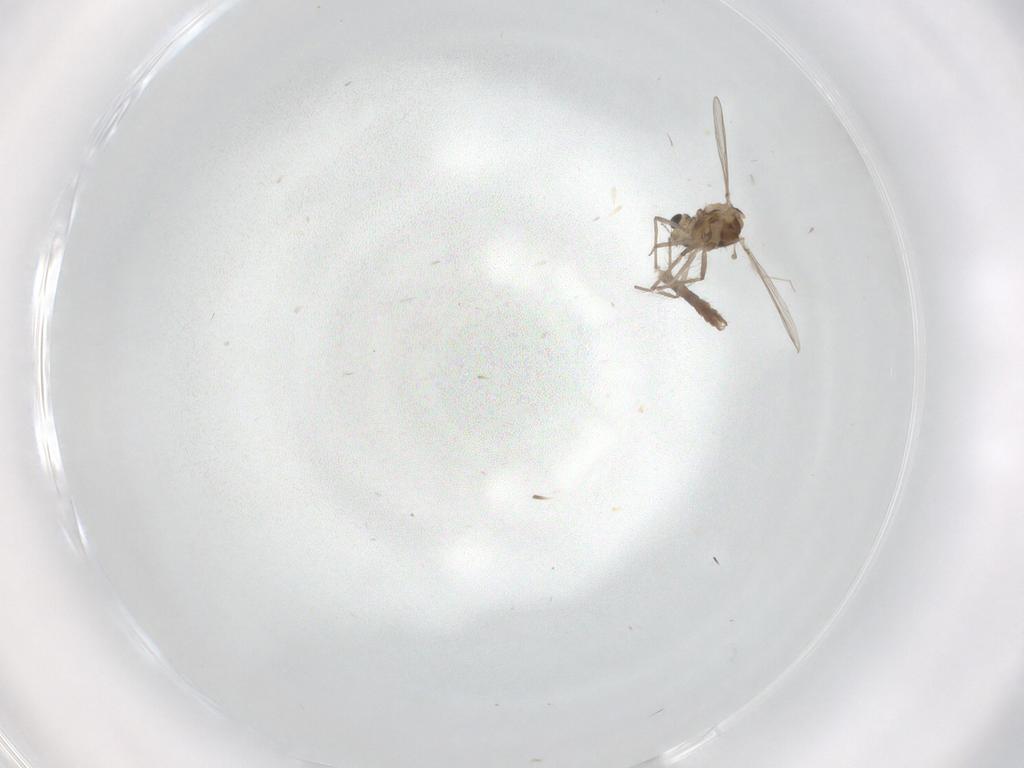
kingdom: Animalia
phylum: Arthropoda
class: Insecta
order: Diptera
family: Chironomidae
